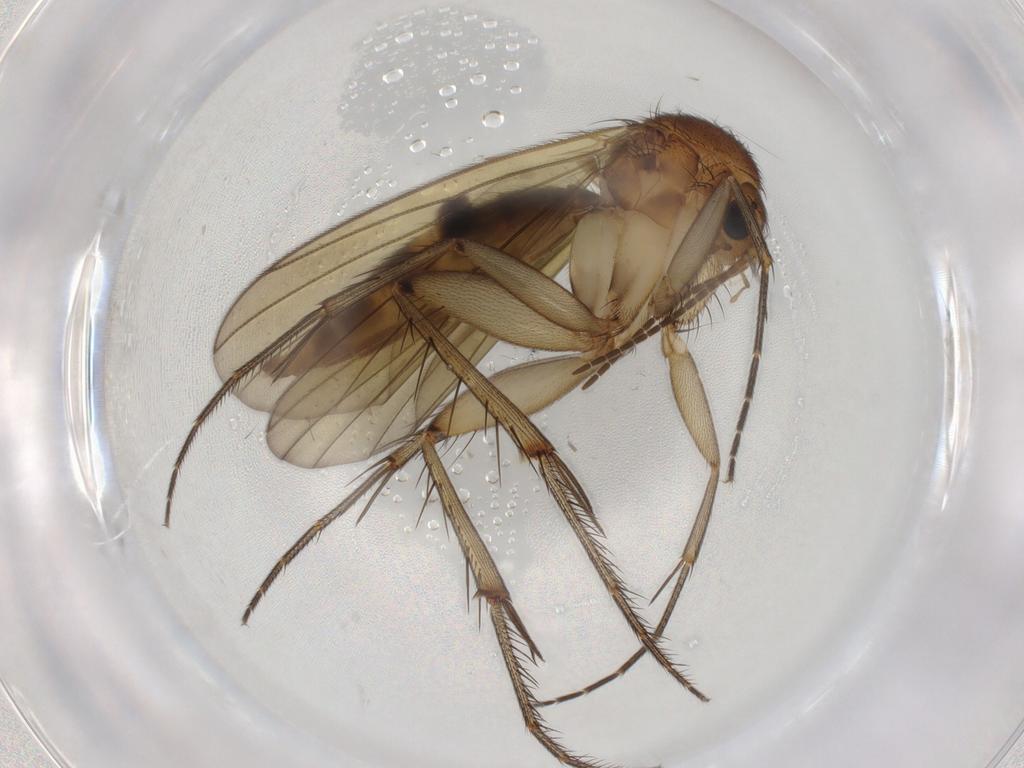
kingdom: Animalia
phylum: Arthropoda
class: Insecta
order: Diptera
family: Mycetophilidae
